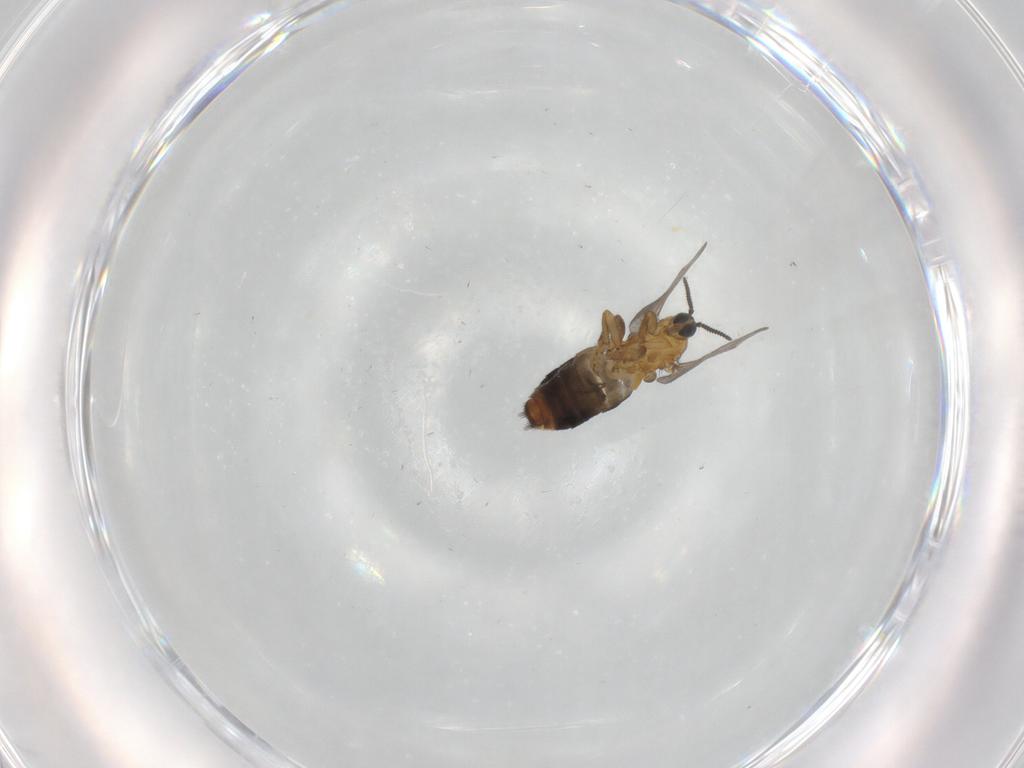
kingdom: Animalia
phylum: Arthropoda
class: Insecta
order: Diptera
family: Scatopsidae
